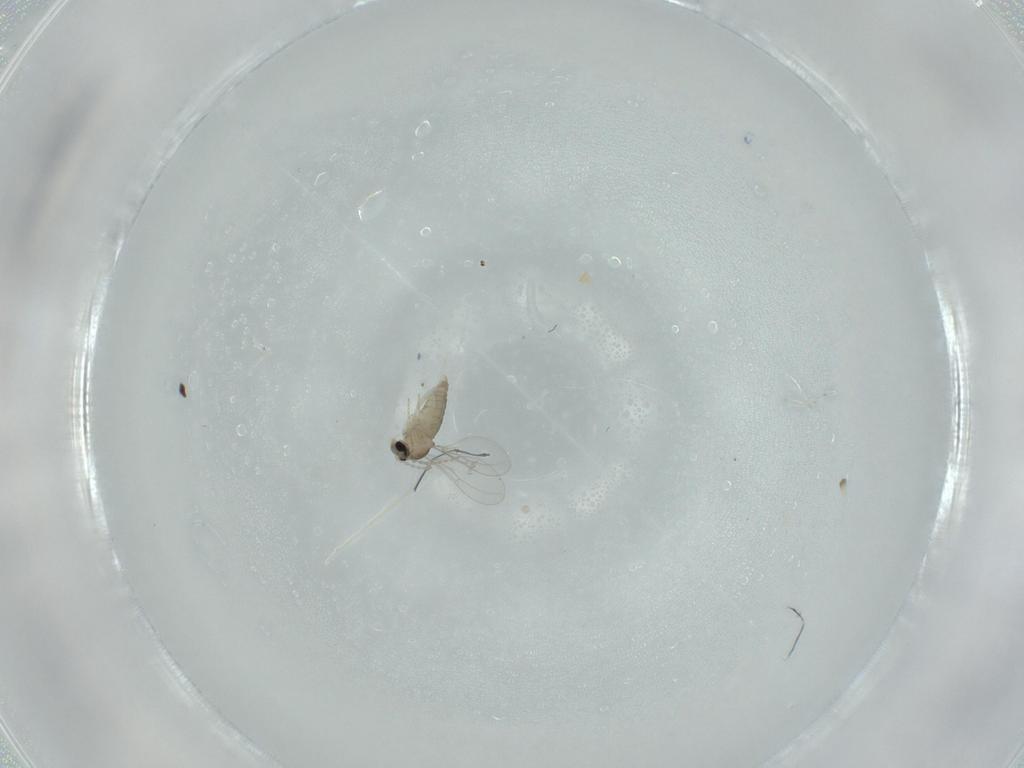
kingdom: Animalia
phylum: Arthropoda
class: Insecta
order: Diptera
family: Cecidomyiidae
